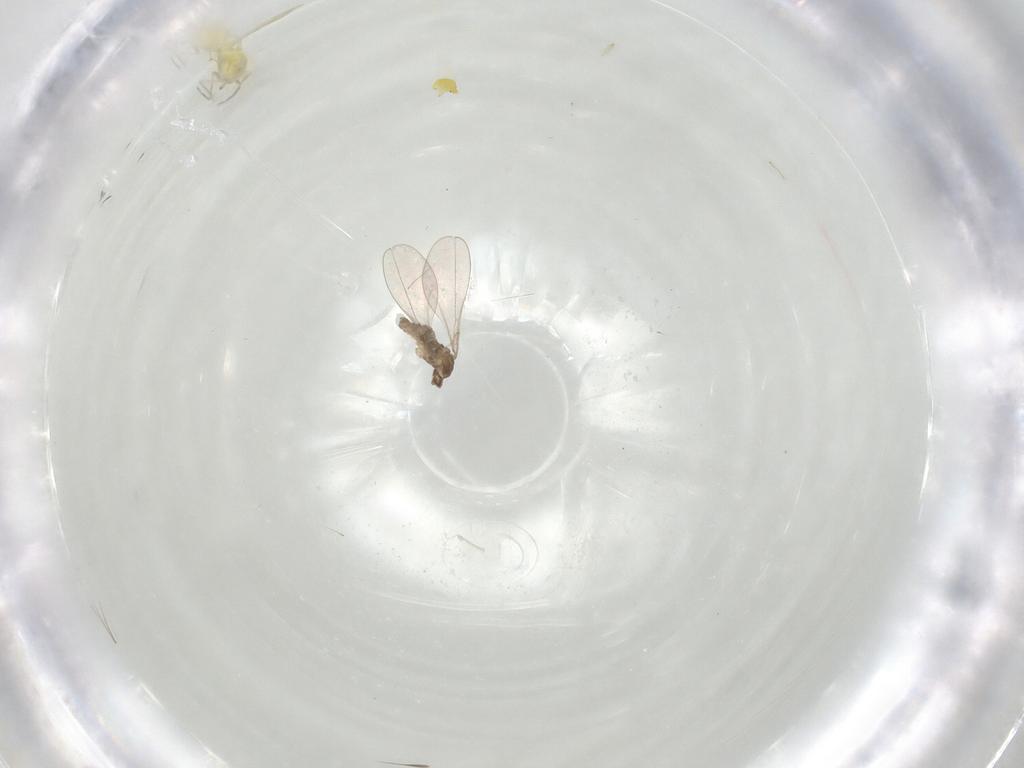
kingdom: Animalia
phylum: Arthropoda
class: Insecta
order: Diptera
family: Cecidomyiidae
